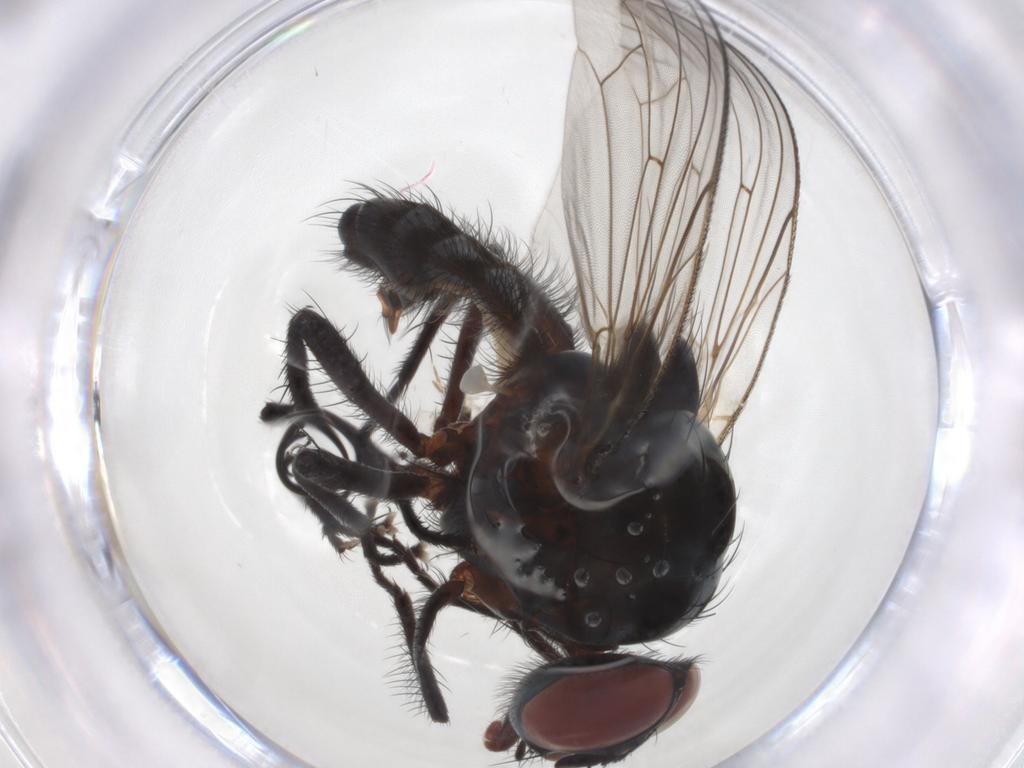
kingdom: Animalia
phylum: Arthropoda
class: Insecta
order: Diptera
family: Anthomyiidae
